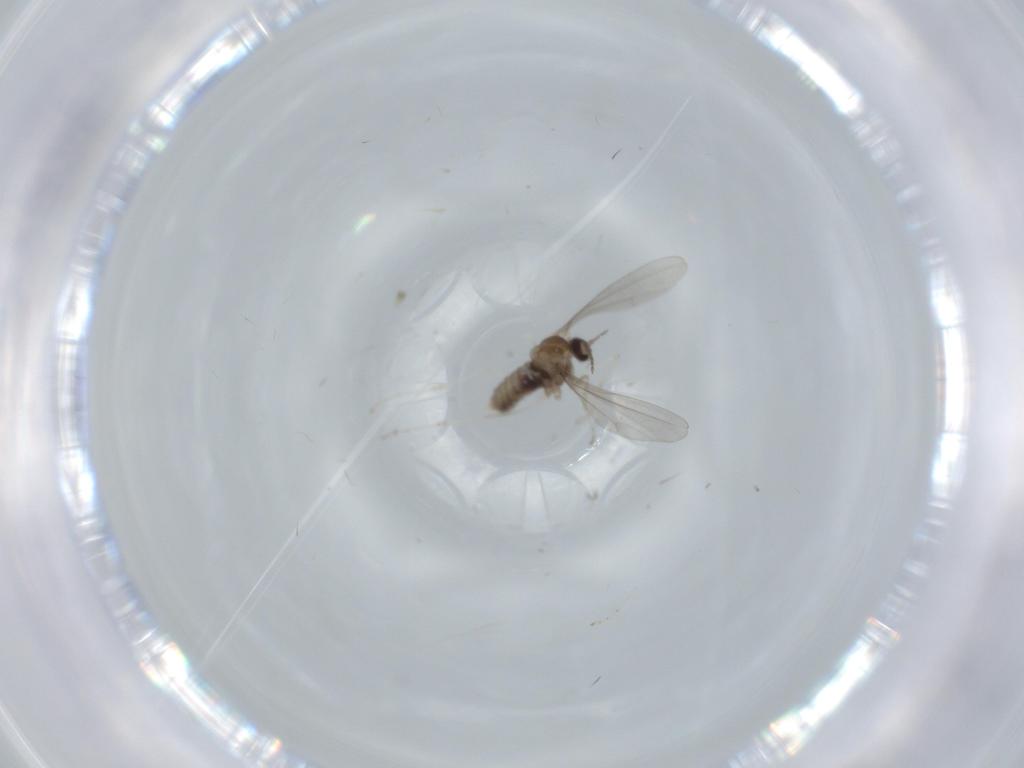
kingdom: Animalia
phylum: Arthropoda
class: Insecta
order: Diptera
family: Cecidomyiidae
